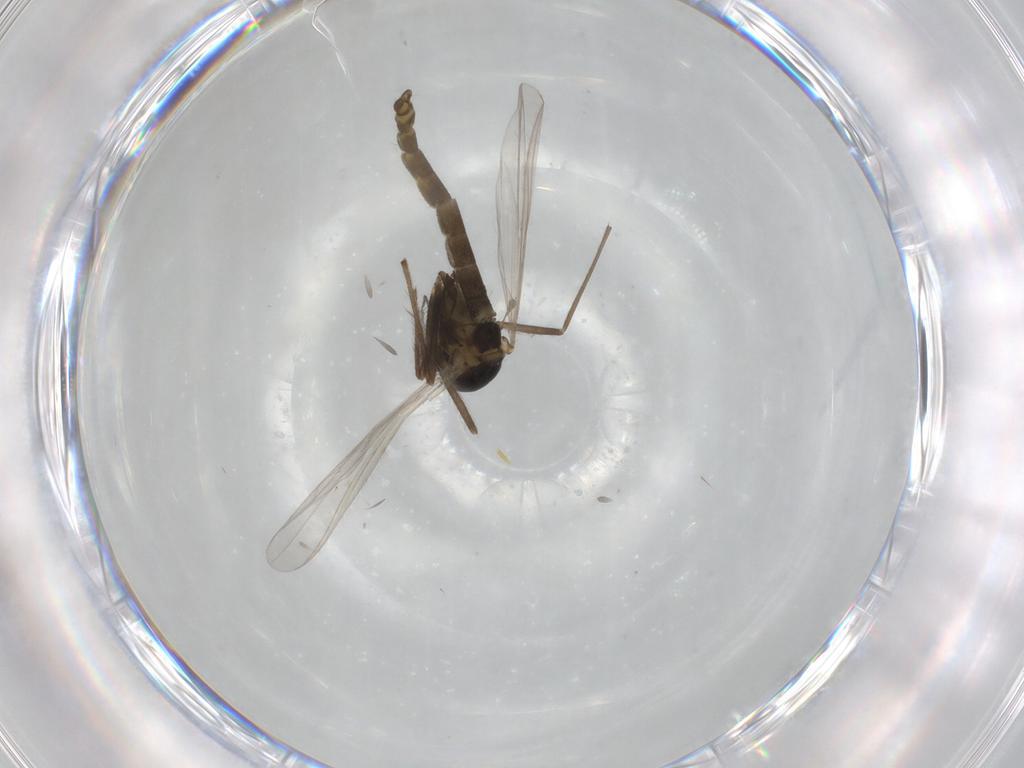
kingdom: Animalia
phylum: Arthropoda
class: Insecta
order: Diptera
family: Chironomidae
